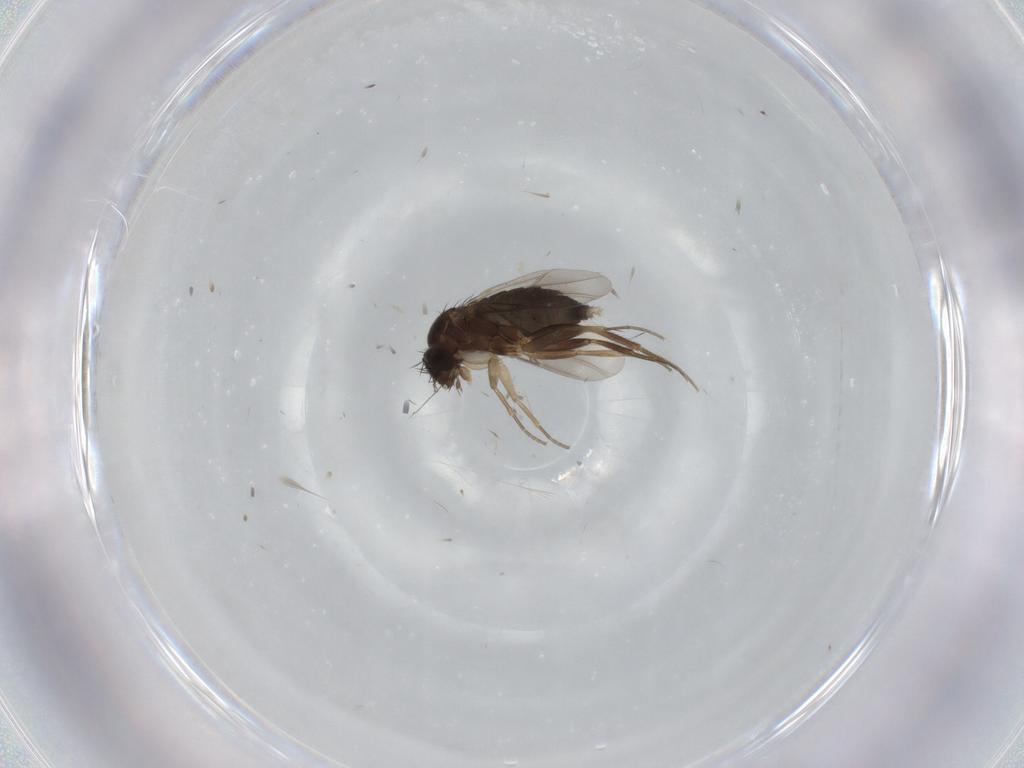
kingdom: Animalia
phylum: Arthropoda
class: Insecta
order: Diptera
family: Phoridae
